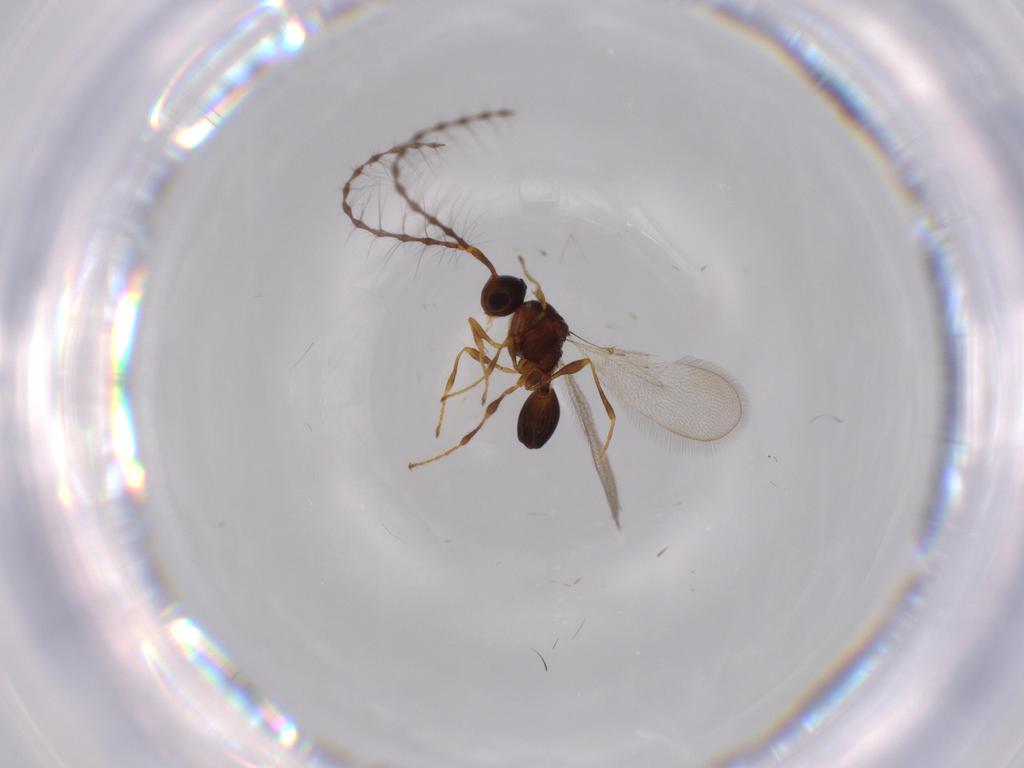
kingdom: Animalia
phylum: Arthropoda
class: Insecta
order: Hymenoptera
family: Diapriidae
